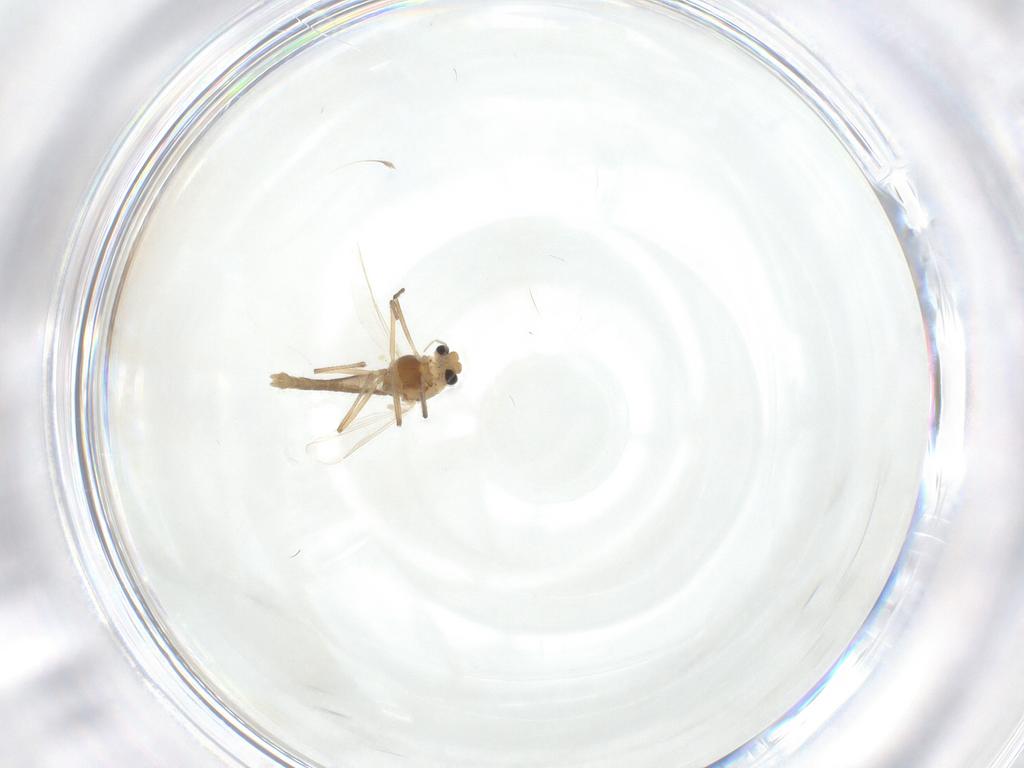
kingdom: Animalia
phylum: Arthropoda
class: Insecta
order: Diptera
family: Chironomidae
